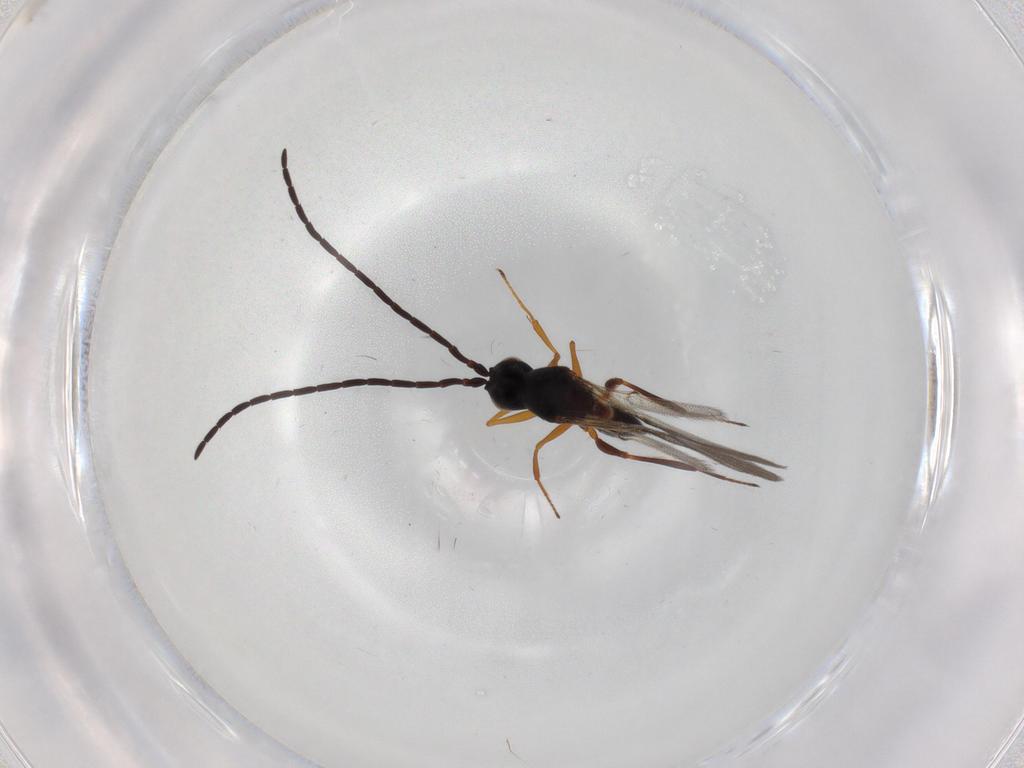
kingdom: Animalia
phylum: Arthropoda
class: Insecta
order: Hymenoptera
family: Figitidae
